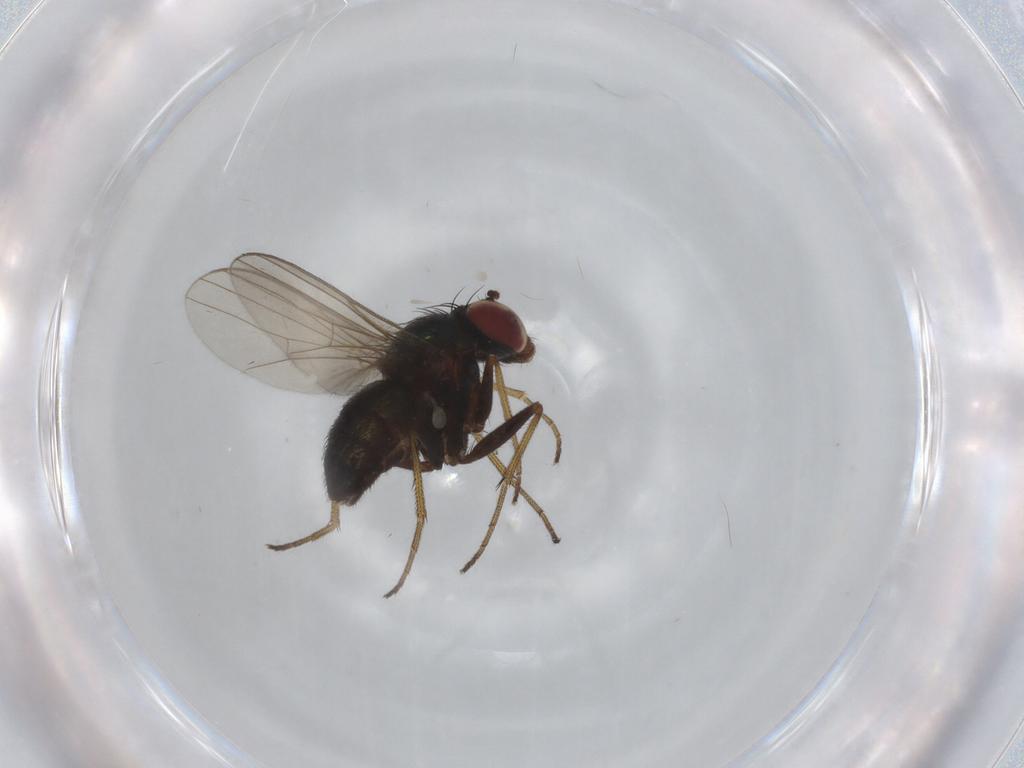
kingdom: Animalia
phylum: Arthropoda
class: Insecta
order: Diptera
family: Dolichopodidae
